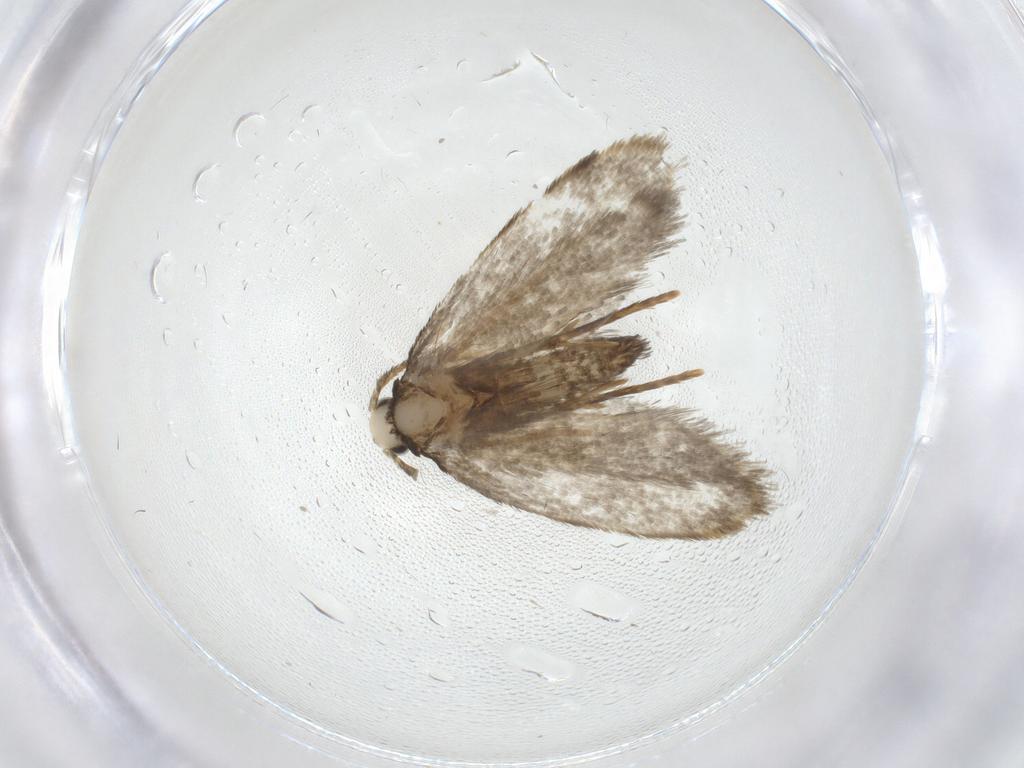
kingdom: Animalia
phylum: Arthropoda
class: Insecta
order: Lepidoptera
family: Psychidae
